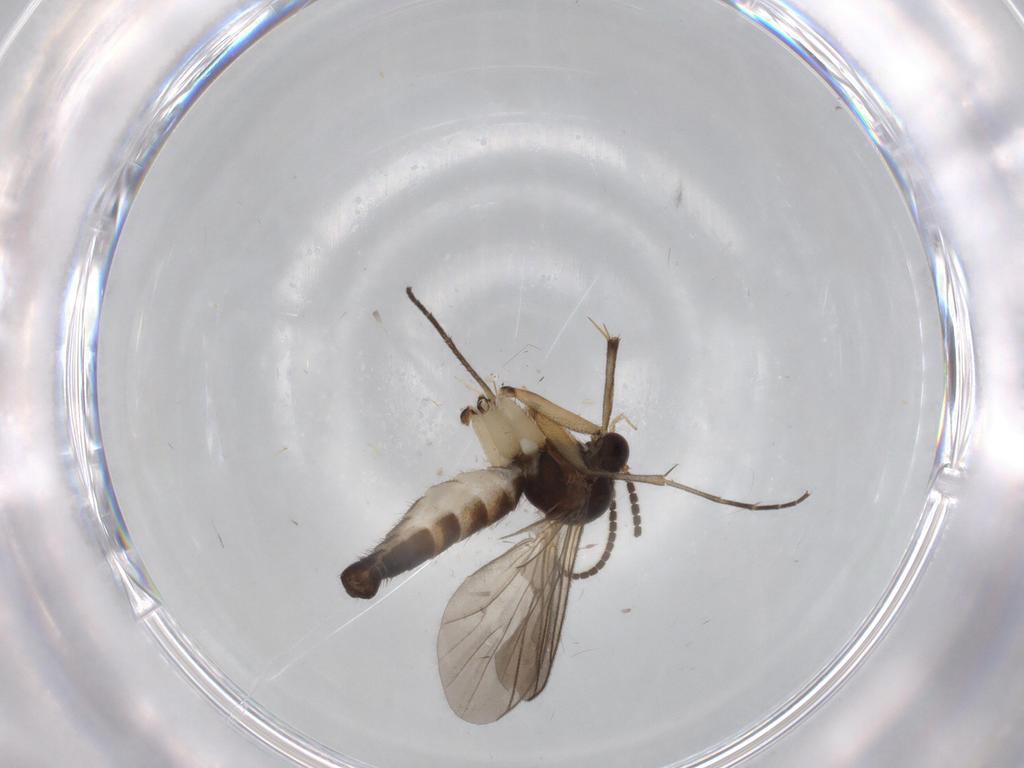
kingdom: Animalia
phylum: Arthropoda
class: Insecta
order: Diptera
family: Mycetophilidae
